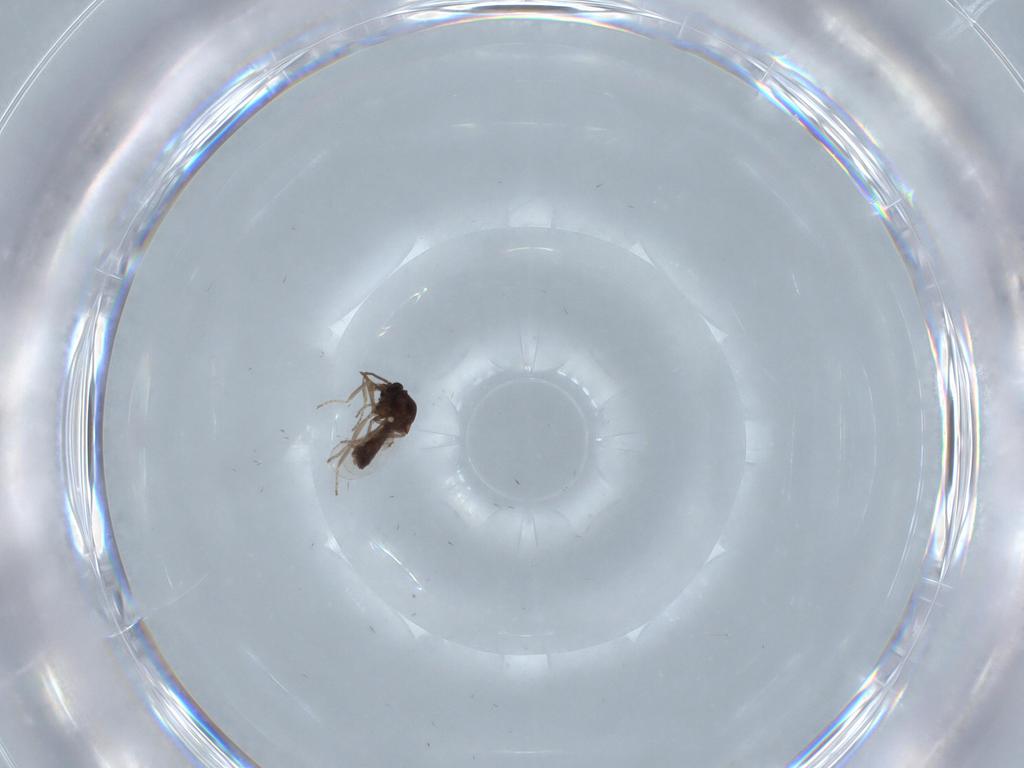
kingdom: Animalia
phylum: Arthropoda
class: Insecta
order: Diptera
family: Ceratopogonidae
